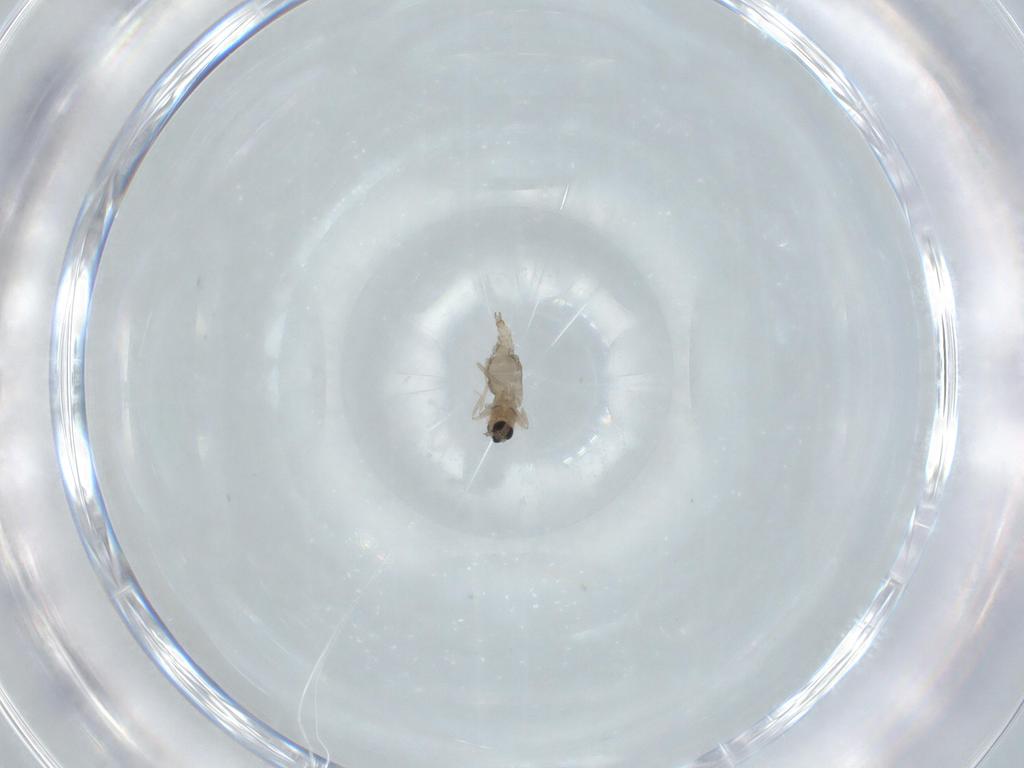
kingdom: Animalia
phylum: Arthropoda
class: Insecta
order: Diptera
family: Cecidomyiidae
